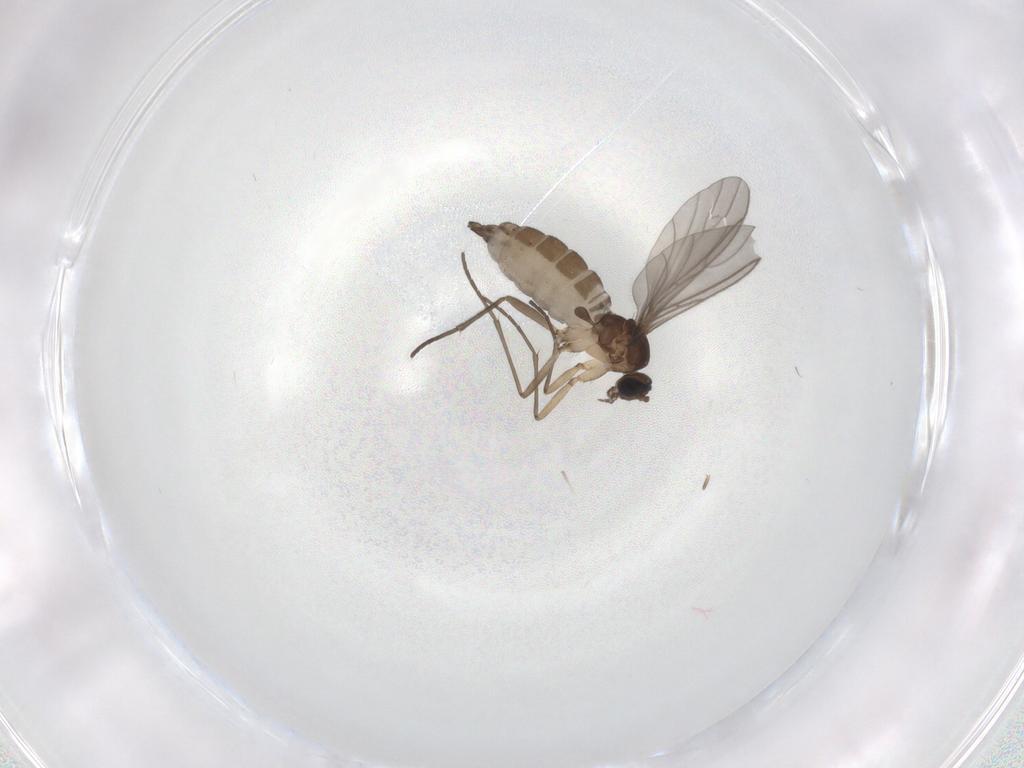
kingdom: Animalia
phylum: Arthropoda
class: Insecta
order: Diptera
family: Sciaridae
